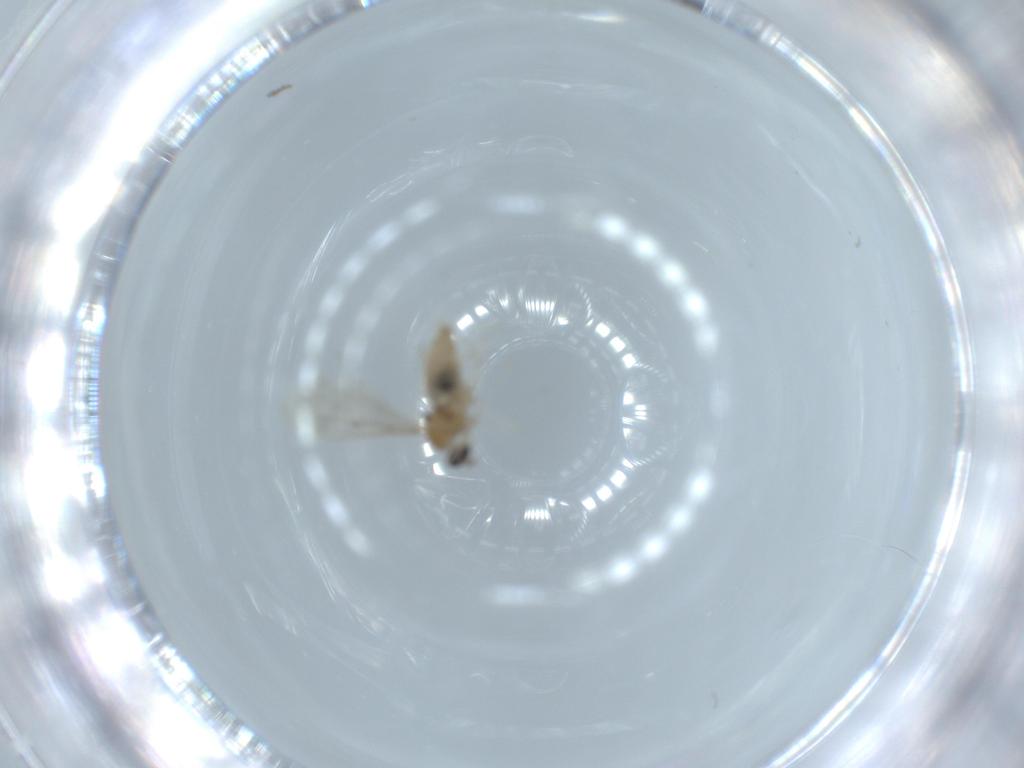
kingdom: Animalia
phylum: Arthropoda
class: Insecta
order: Diptera
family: Cecidomyiidae
